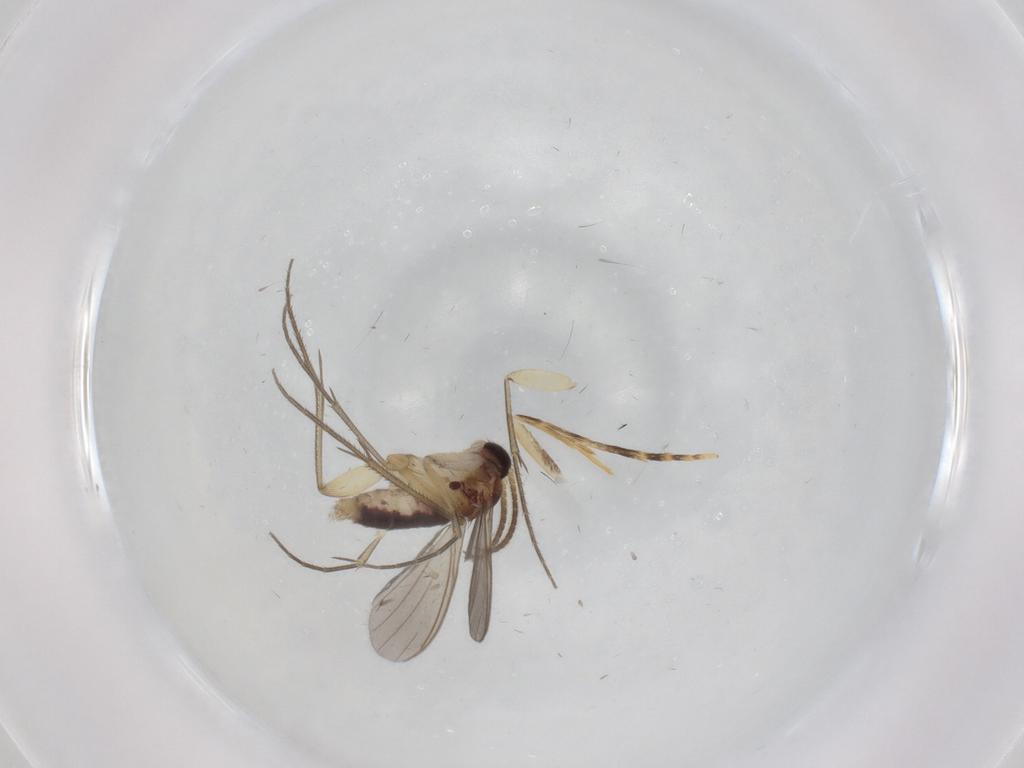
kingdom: Animalia
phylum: Arthropoda
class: Insecta
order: Diptera
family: Mycetophilidae
